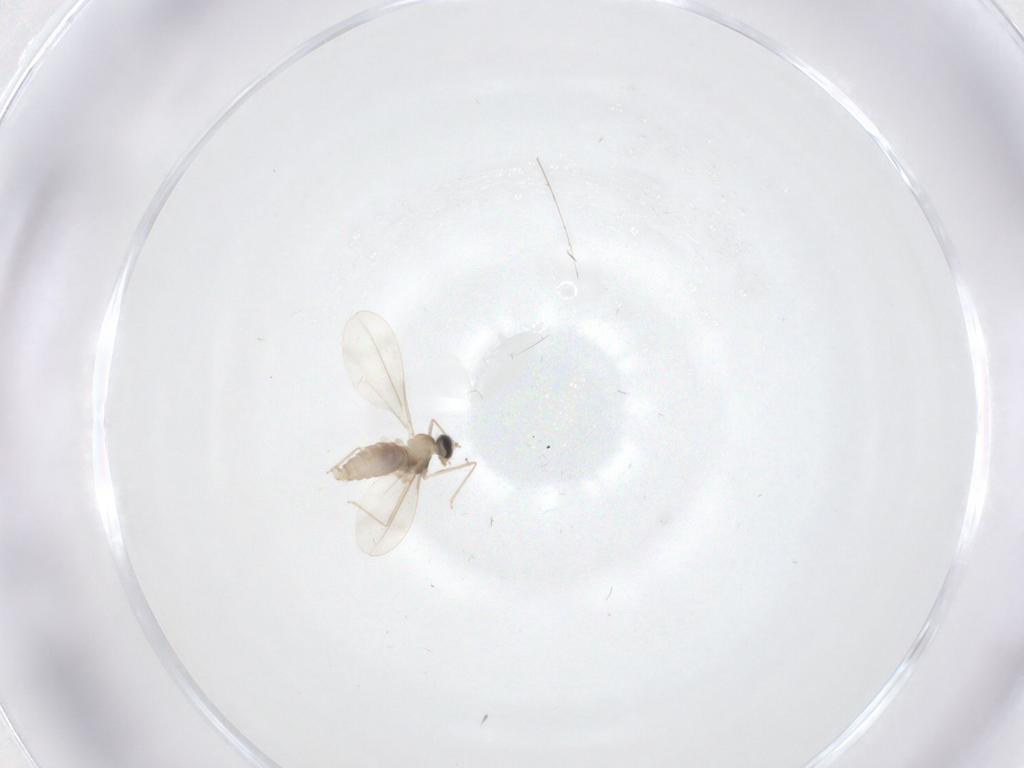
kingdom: Animalia
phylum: Arthropoda
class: Insecta
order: Diptera
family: Cecidomyiidae
